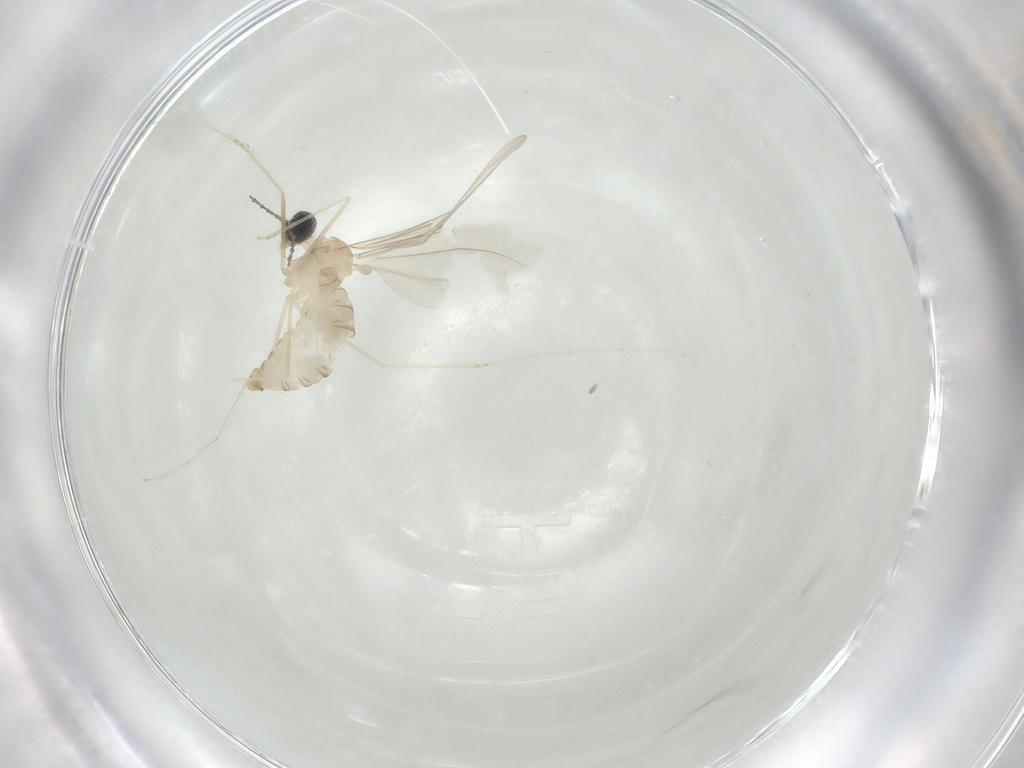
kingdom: Animalia
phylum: Arthropoda
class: Insecta
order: Diptera
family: Cecidomyiidae
